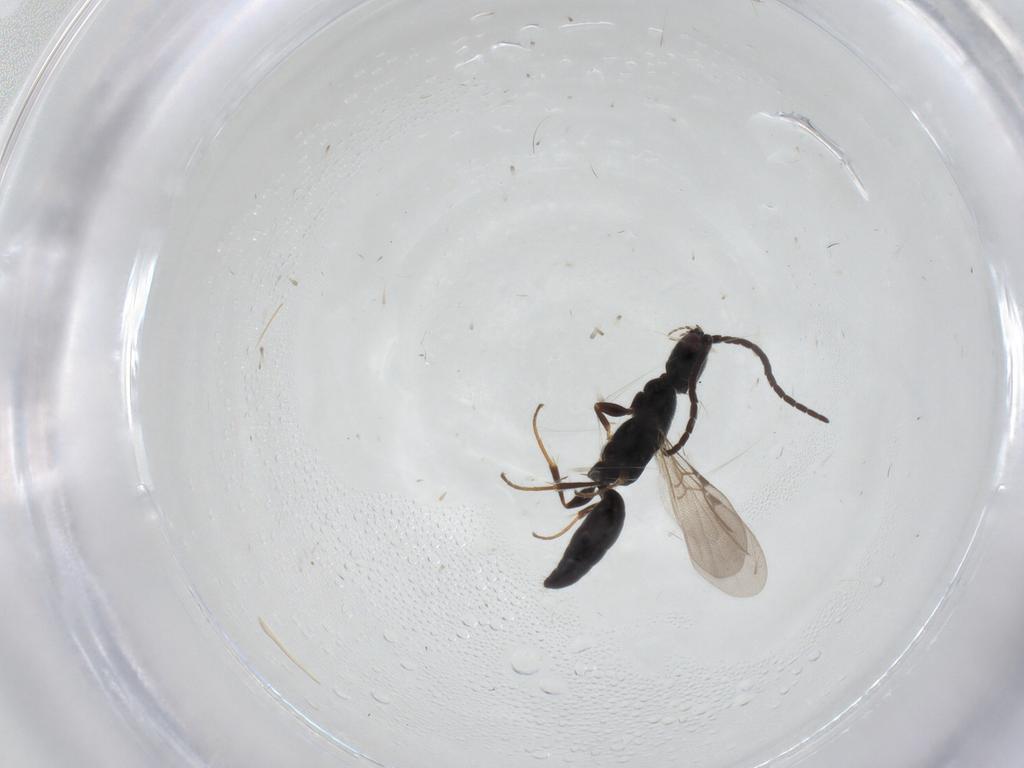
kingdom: Animalia
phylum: Arthropoda
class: Insecta
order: Hymenoptera
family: Bethylidae
